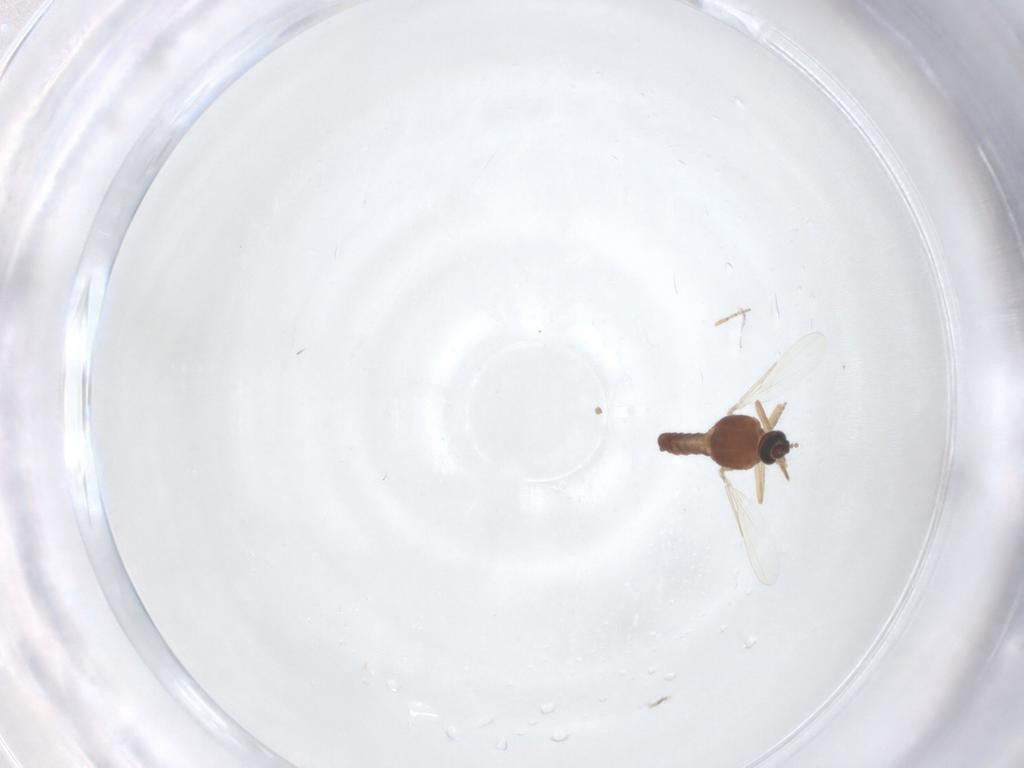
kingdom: Animalia
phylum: Arthropoda
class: Insecta
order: Diptera
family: Ceratopogonidae
